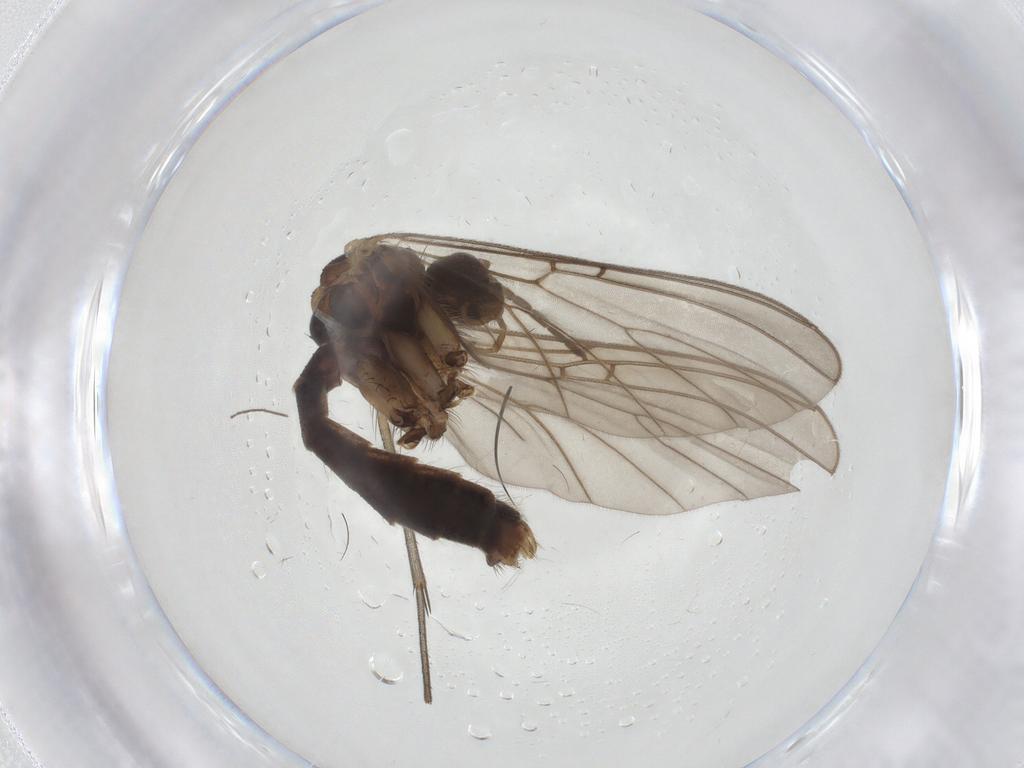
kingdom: Animalia
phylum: Arthropoda
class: Insecta
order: Diptera
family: Ceratopogonidae
